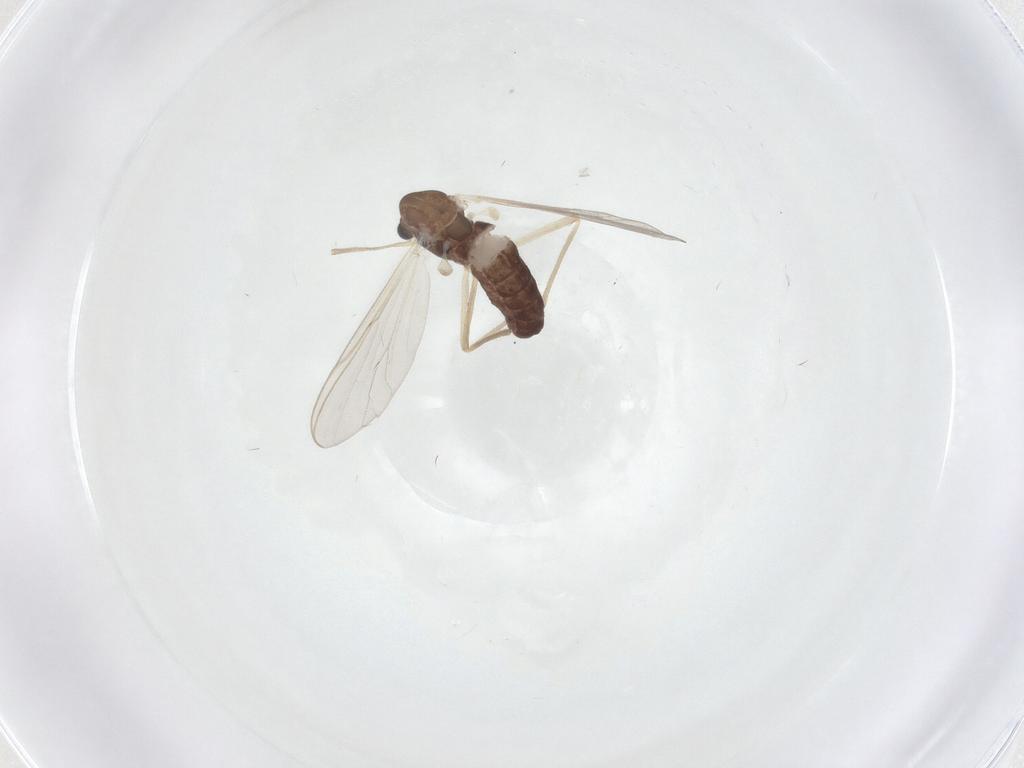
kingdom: Animalia
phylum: Arthropoda
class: Insecta
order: Diptera
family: Chironomidae
